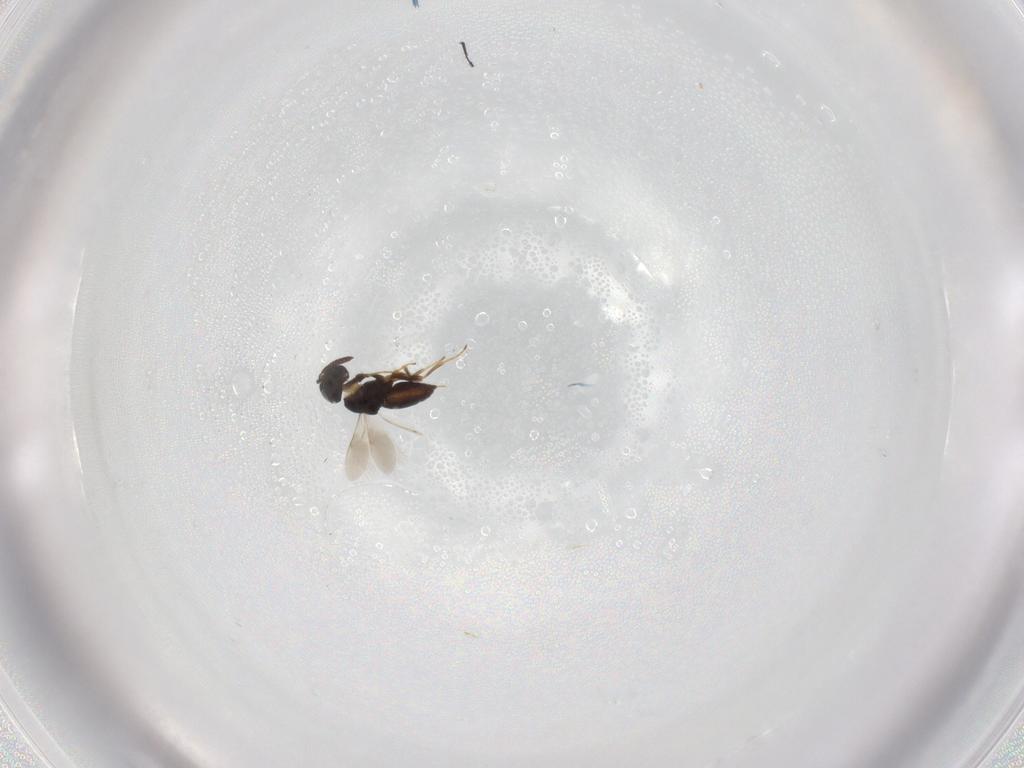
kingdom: Animalia
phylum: Arthropoda
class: Insecta
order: Hymenoptera
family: Scelionidae
